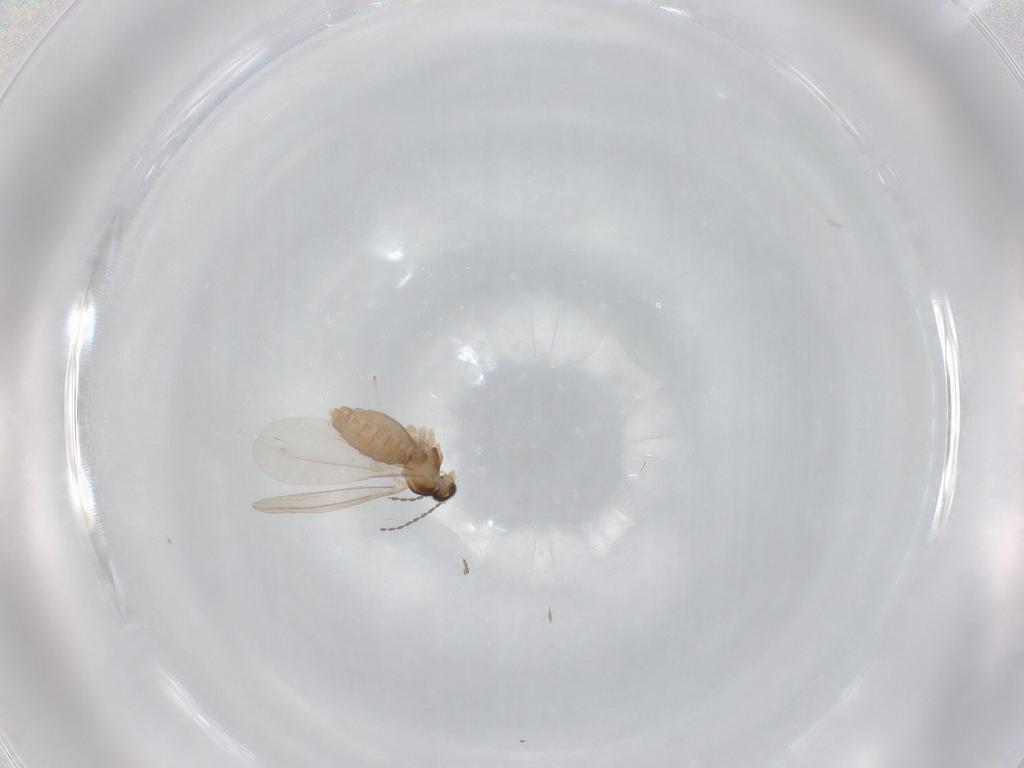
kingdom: Animalia
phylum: Arthropoda
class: Insecta
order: Diptera
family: Cecidomyiidae
